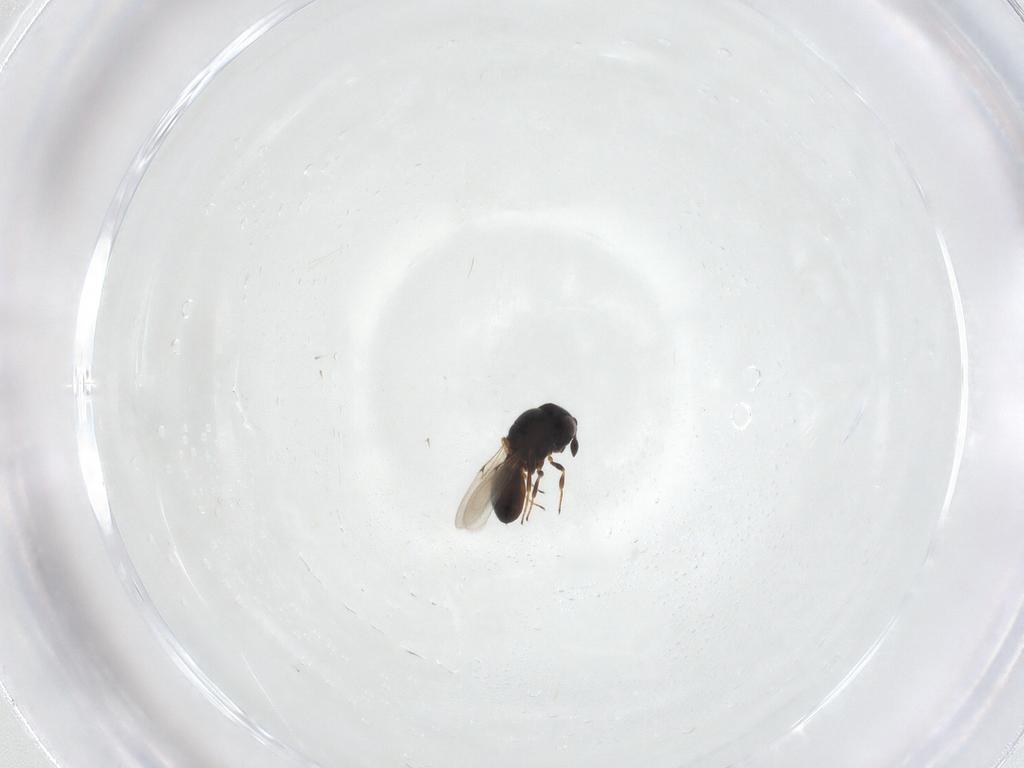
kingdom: Animalia
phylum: Arthropoda
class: Insecta
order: Hymenoptera
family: Scelionidae
